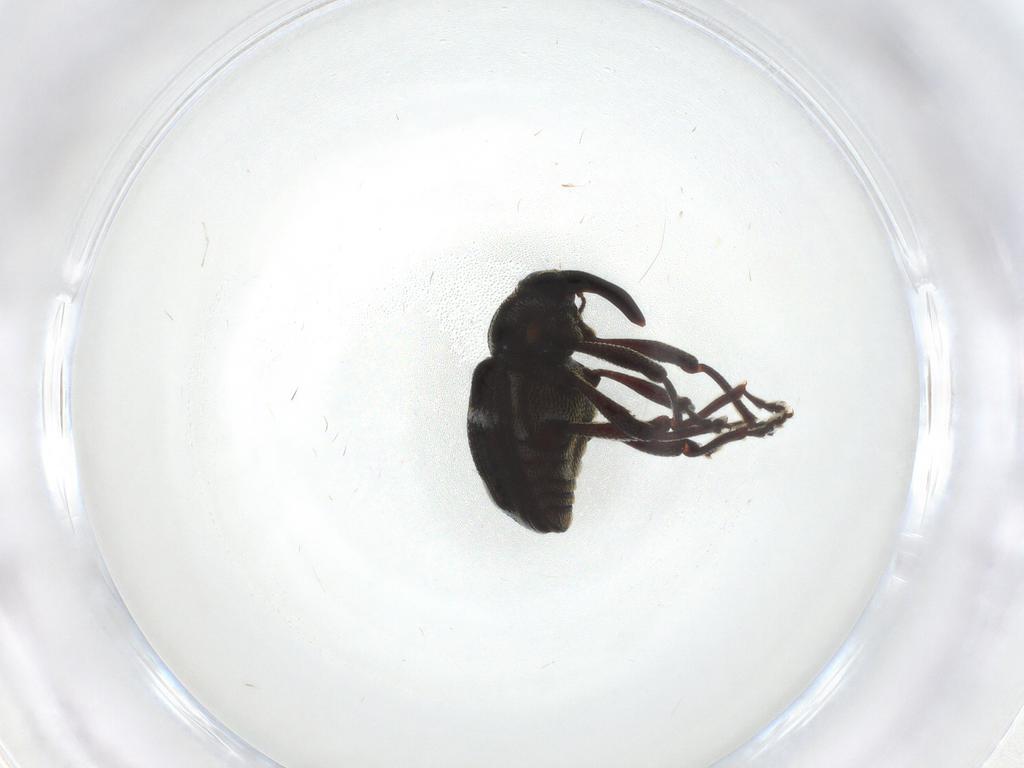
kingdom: Animalia
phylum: Arthropoda
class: Insecta
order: Coleoptera
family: Curculionidae
